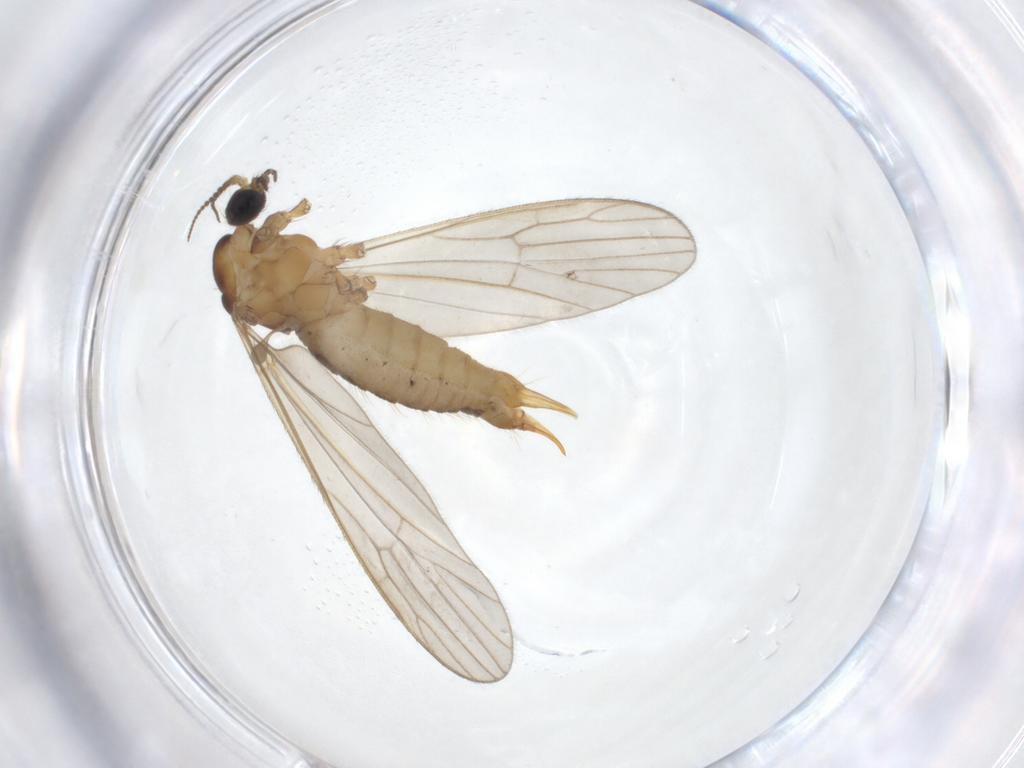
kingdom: Animalia
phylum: Arthropoda
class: Insecta
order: Diptera
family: Limoniidae
